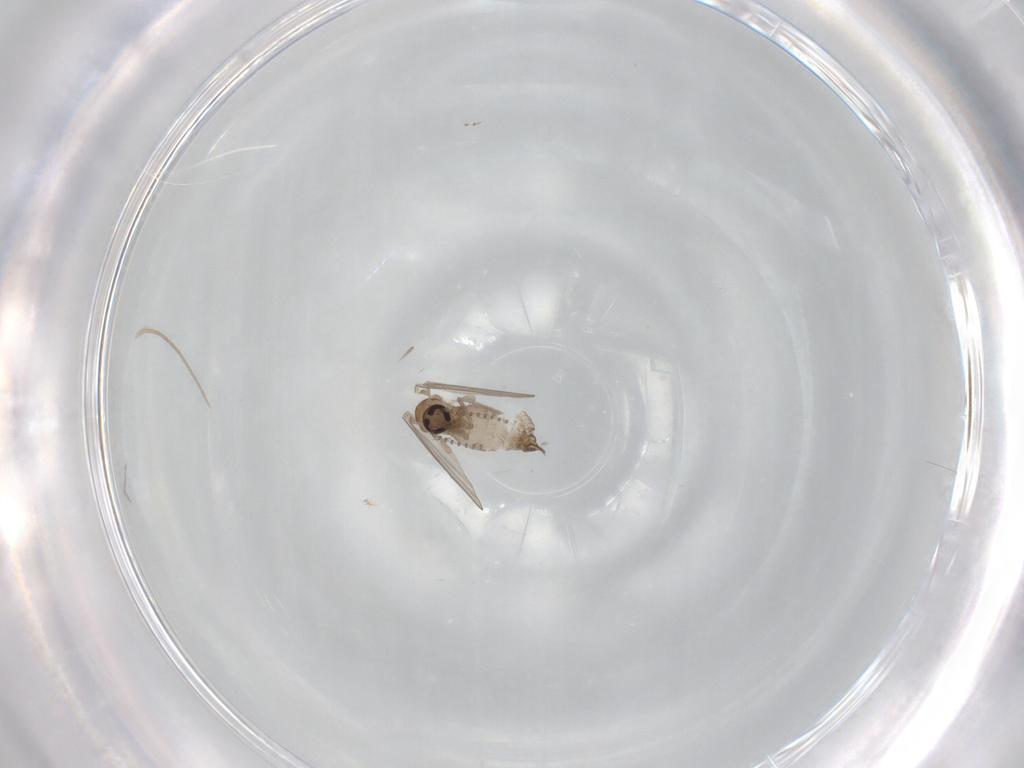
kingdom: Animalia
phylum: Arthropoda
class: Insecta
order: Diptera
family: Psychodidae
